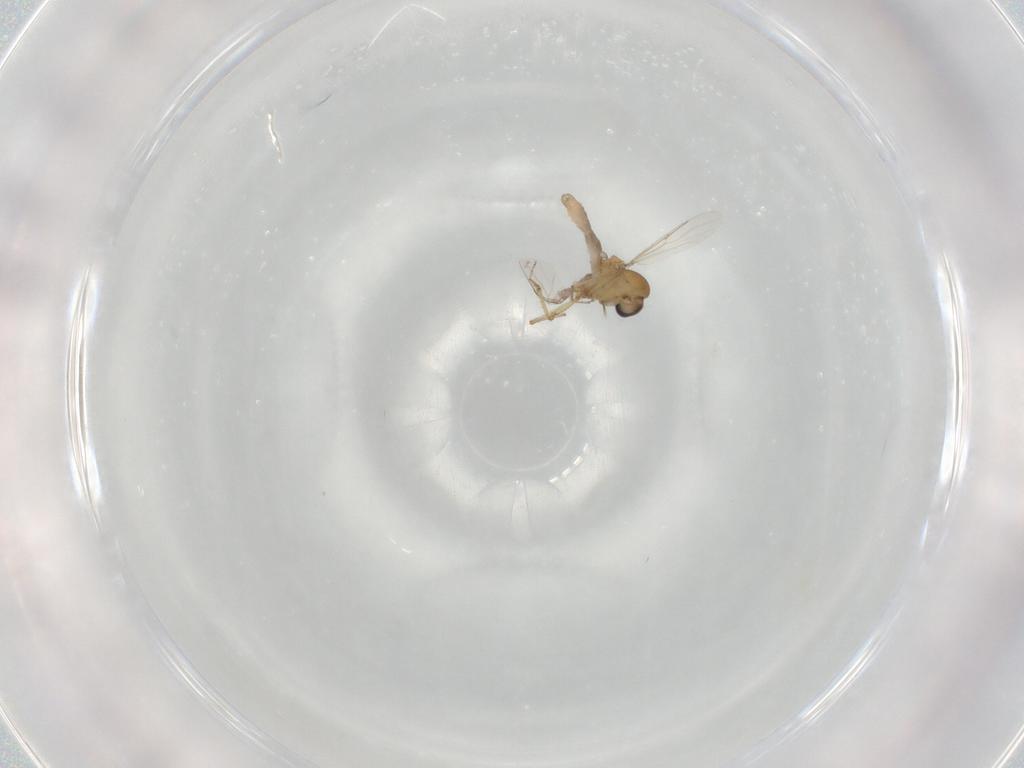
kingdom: Animalia
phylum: Arthropoda
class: Insecta
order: Diptera
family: Ceratopogonidae
